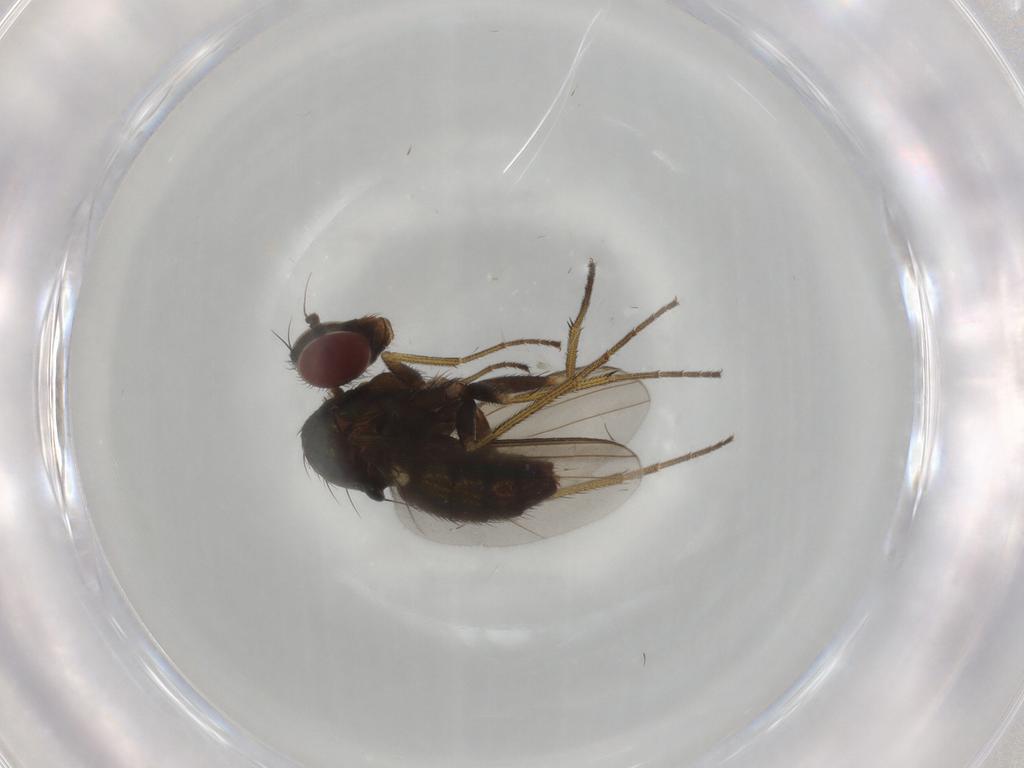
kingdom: Animalia
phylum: Arthropoda
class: Insecta
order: Diptera
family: Dolichopodidae
